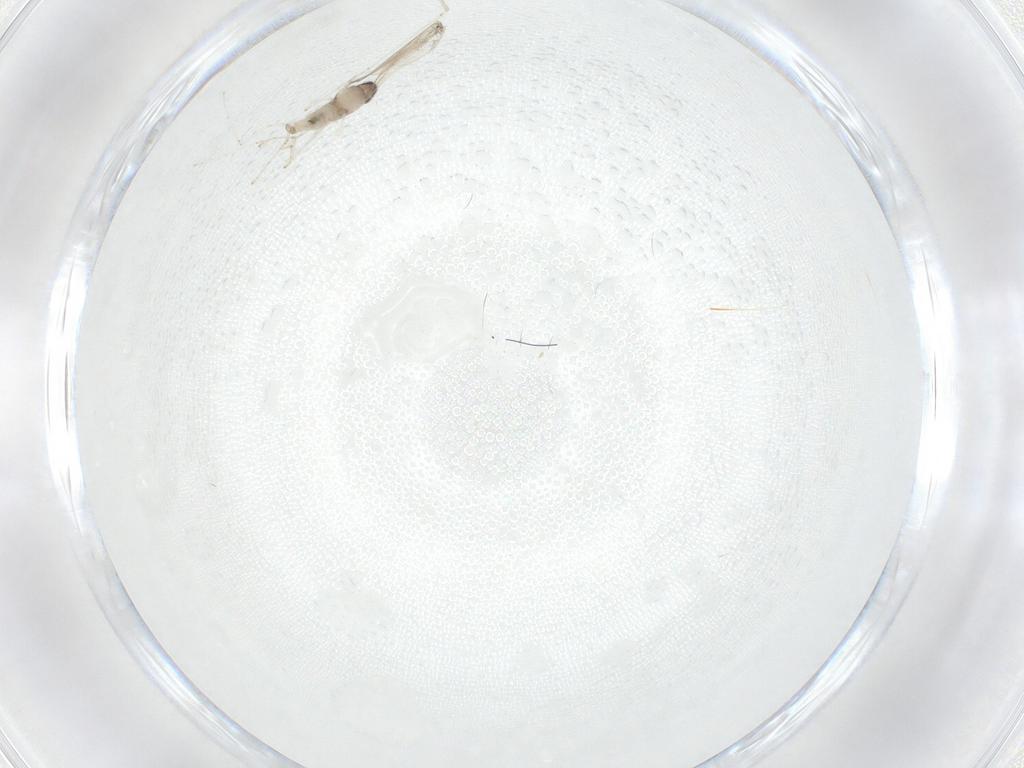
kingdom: Animalia
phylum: Arthropoda
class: Insecta
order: Diptera
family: Cecidomyiidae
